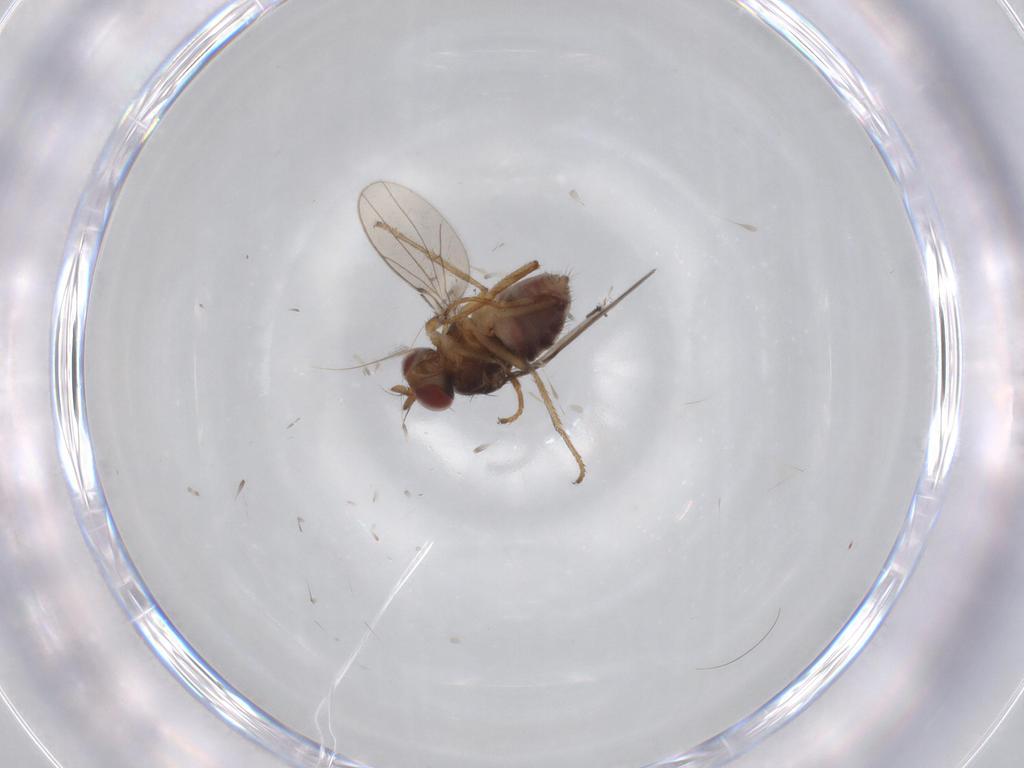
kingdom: Animalia
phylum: Arthropoda
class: Insecta
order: Diptera
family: Ephydridae
